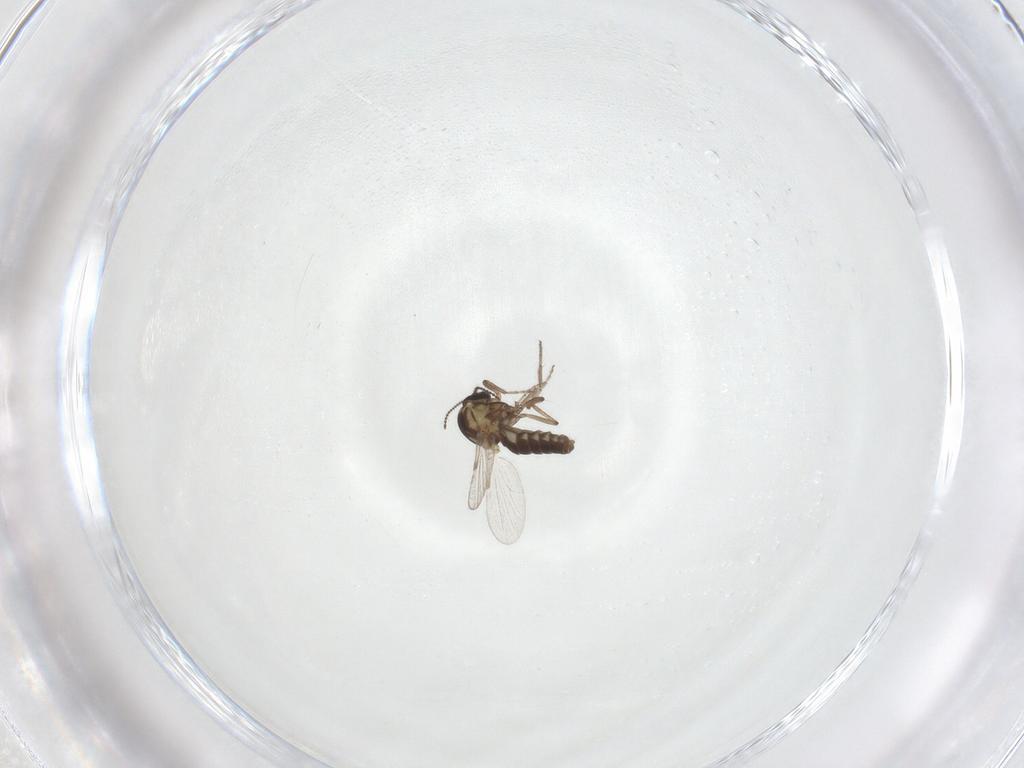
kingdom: Animalia
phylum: Arthropoda
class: Insecta
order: Diptera
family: Ceratopogonidae
